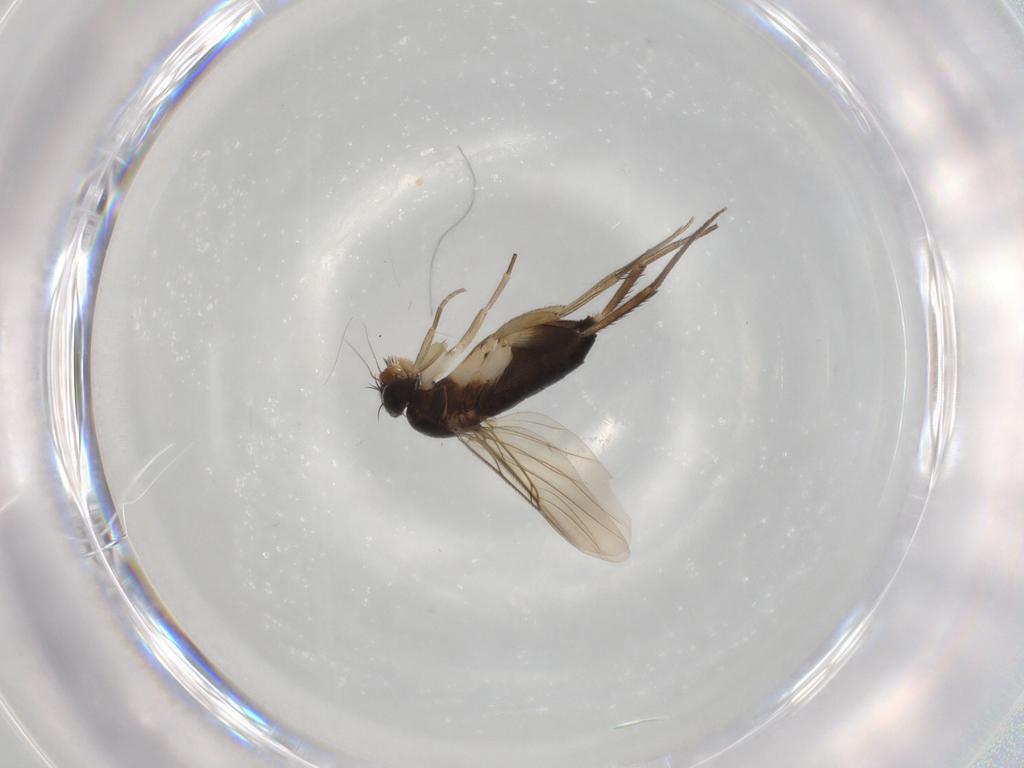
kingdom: Animalia
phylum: Arthropoda
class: Insecta
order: Diptera
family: Phoridae
